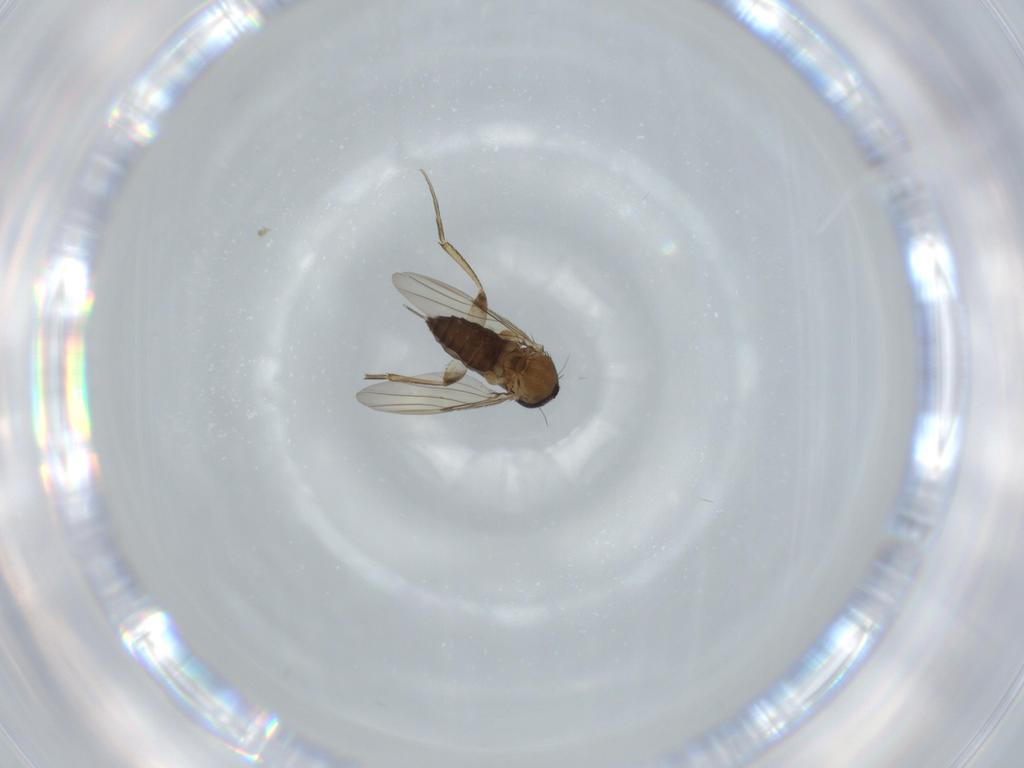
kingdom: Animalia
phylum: Arthropoda
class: Insecta
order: Diptera
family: Phoridae
